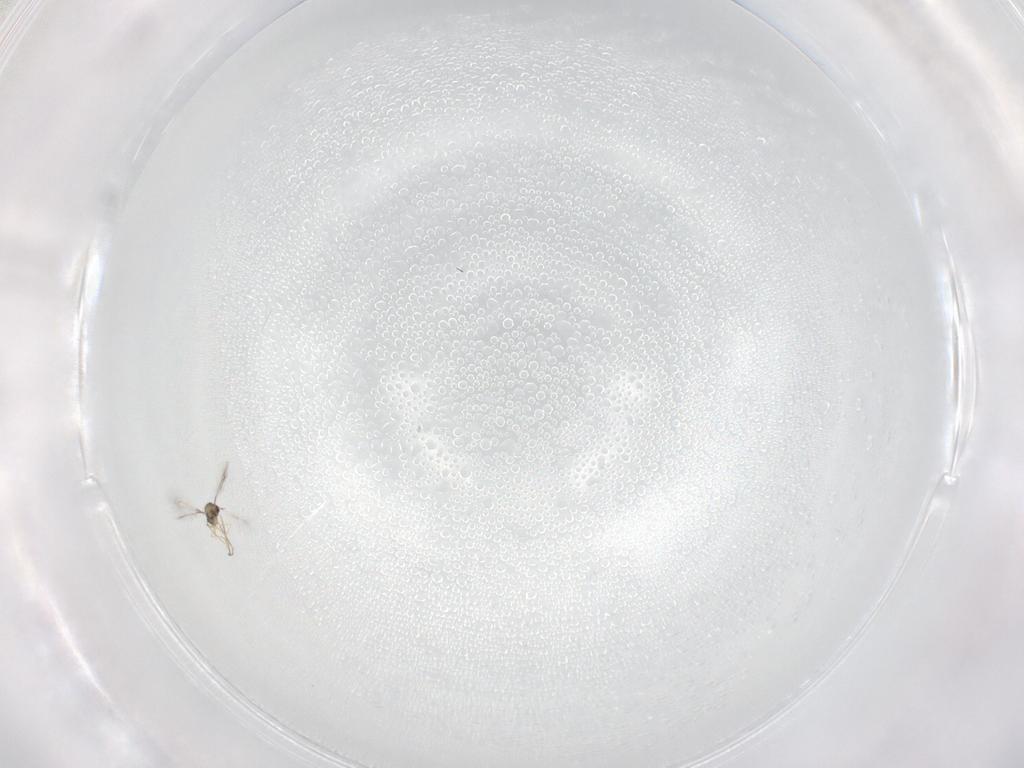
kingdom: Animalia
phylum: Arthropoda
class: Insecta
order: Hymenoptera
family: Mymaridae
